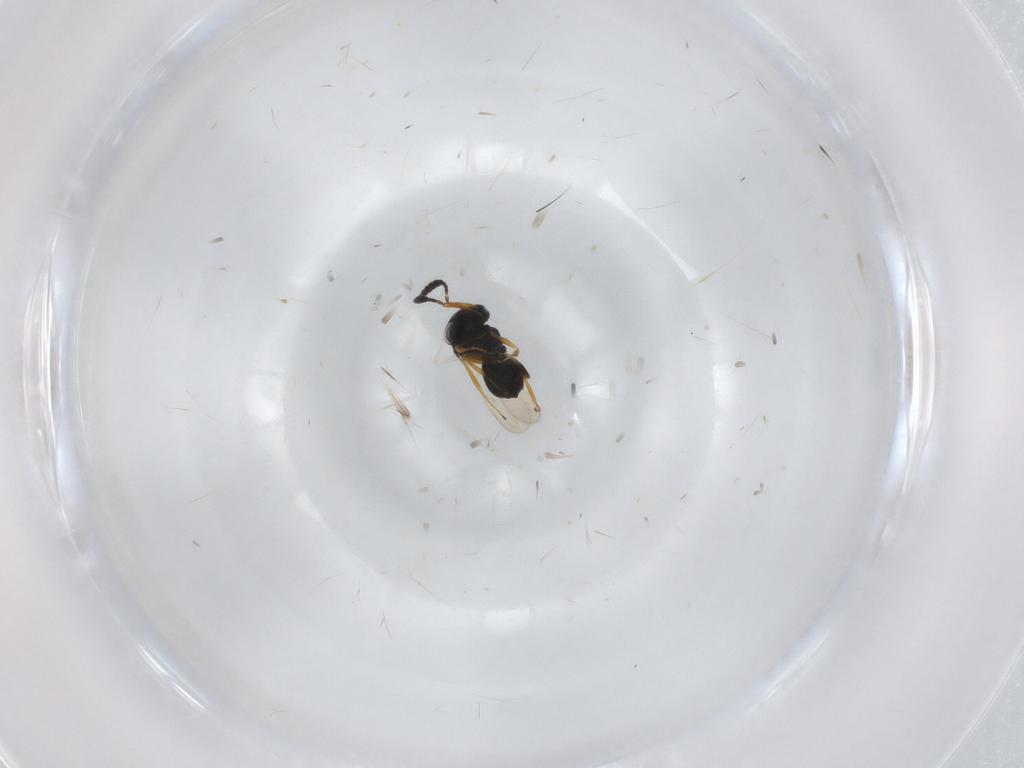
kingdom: Animalia
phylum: Arthropoda
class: Insecta
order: Hymenoptera
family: Scelionidae
